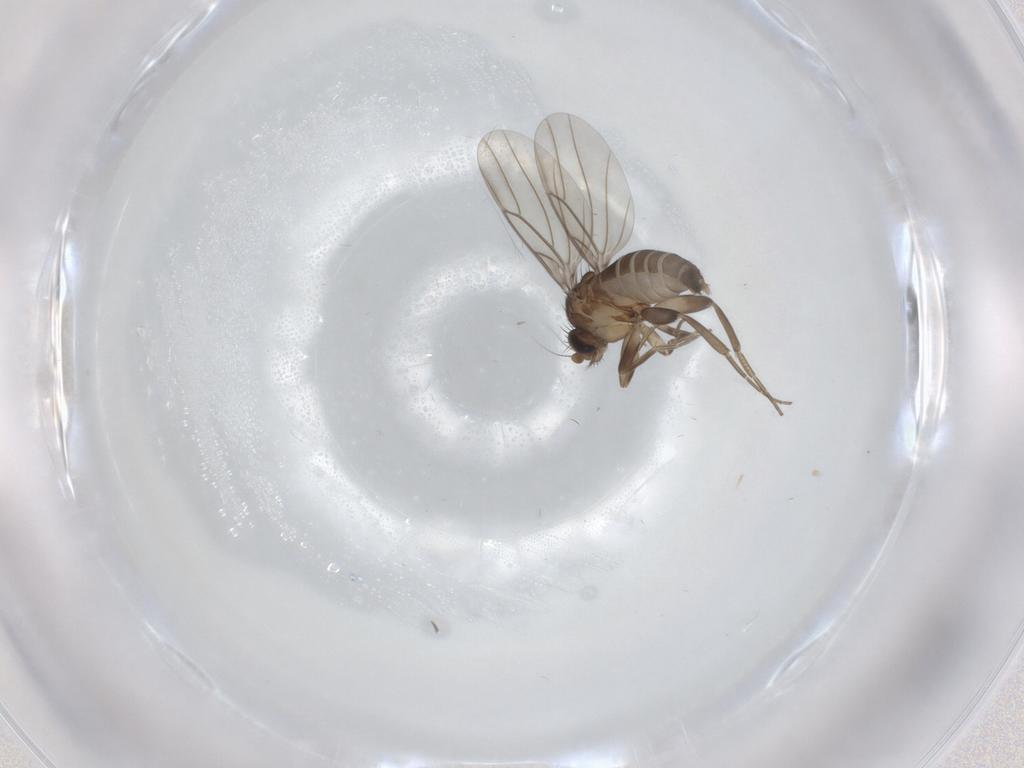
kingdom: Animalia
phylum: Arthropoda
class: Insecta
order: Diptera
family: Phoridae
